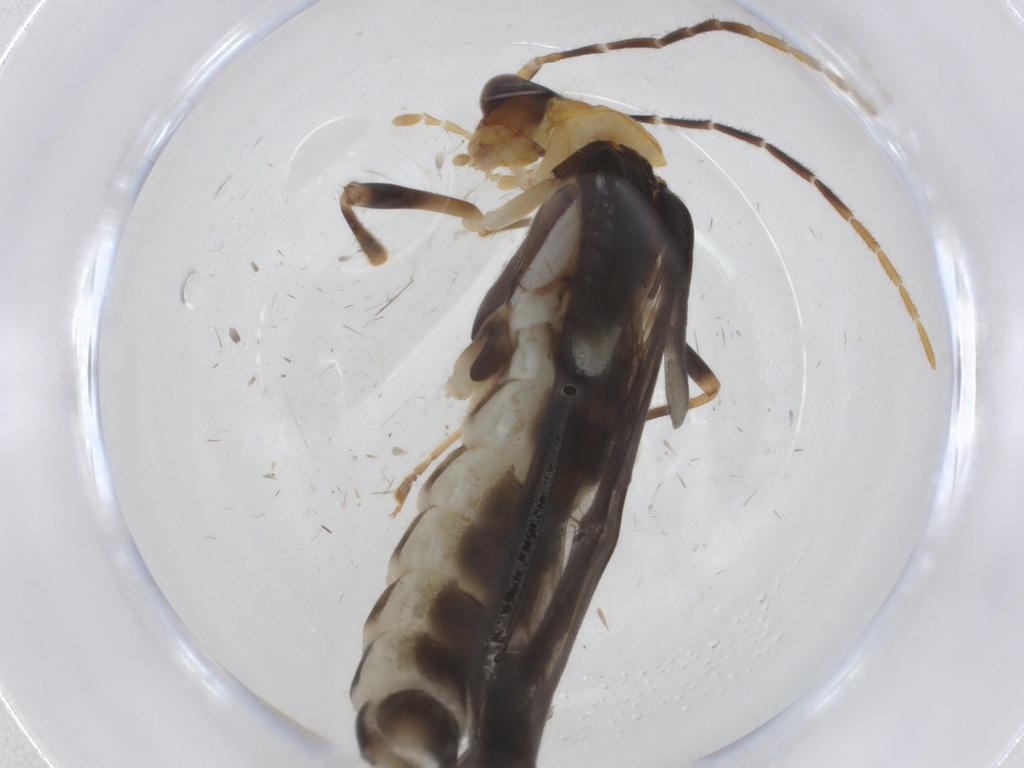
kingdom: Animalia
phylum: Arthropoda
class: Insecta
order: Coleoptera
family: Cantharidae
